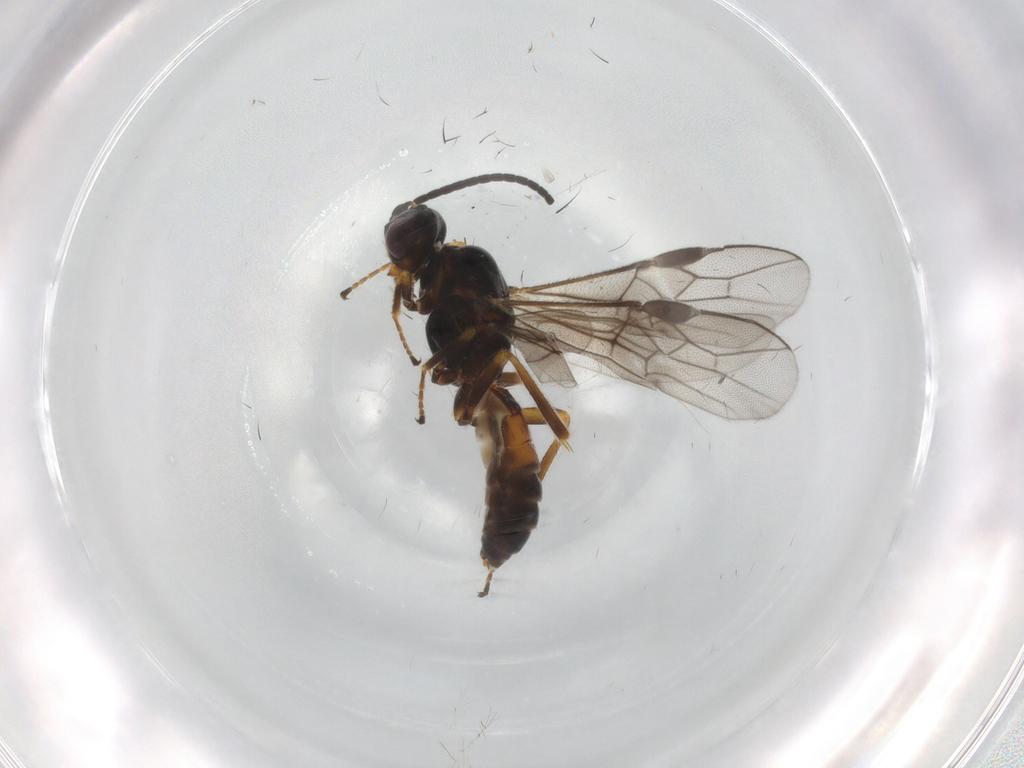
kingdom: Animalia
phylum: Arthropoda
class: Insecta
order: Hymenoptera
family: Braconidae
